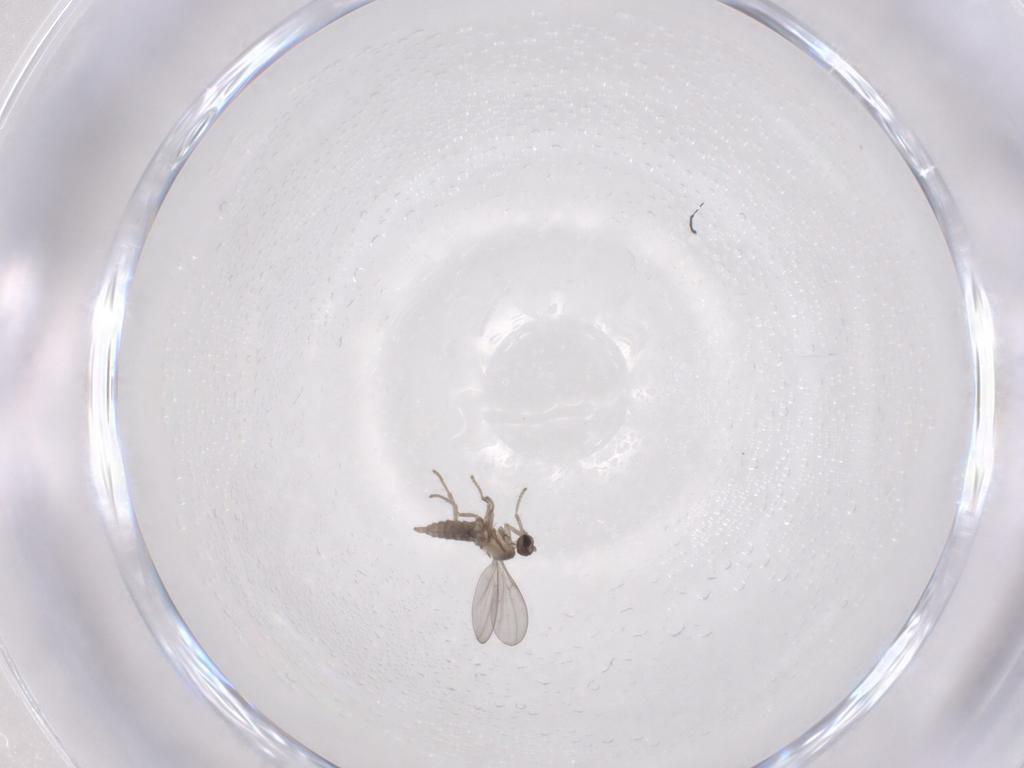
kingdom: Animalia
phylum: Arthropoda
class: Insecta
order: Diptera
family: Cecidomyiidae
